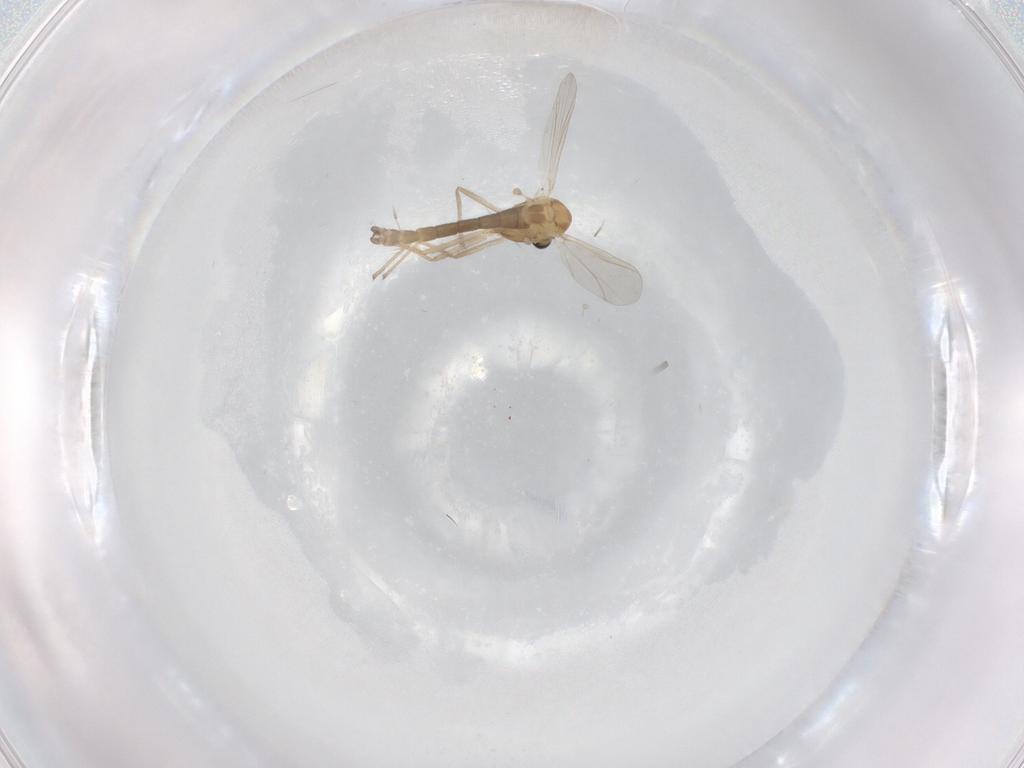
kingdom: Animalia
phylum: Arthropoda
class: Insecta
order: Diptera
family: Chironomidae
